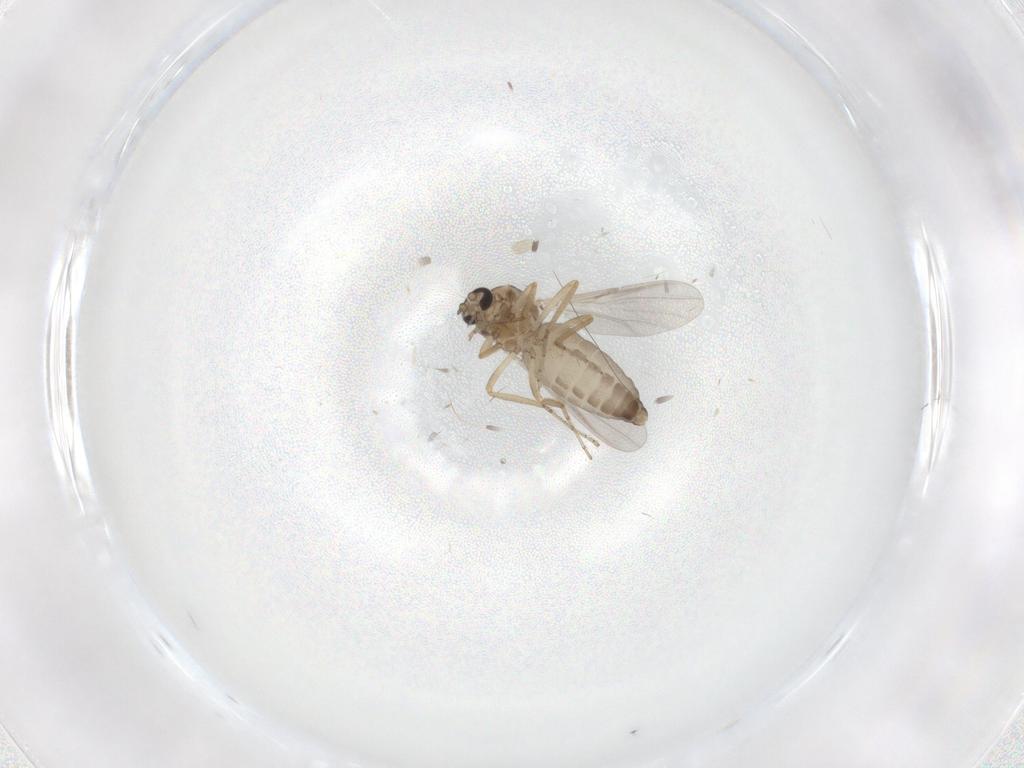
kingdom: Animalia
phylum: Arthropoda
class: Insecta
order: Diptera
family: Ceratopogonidae
